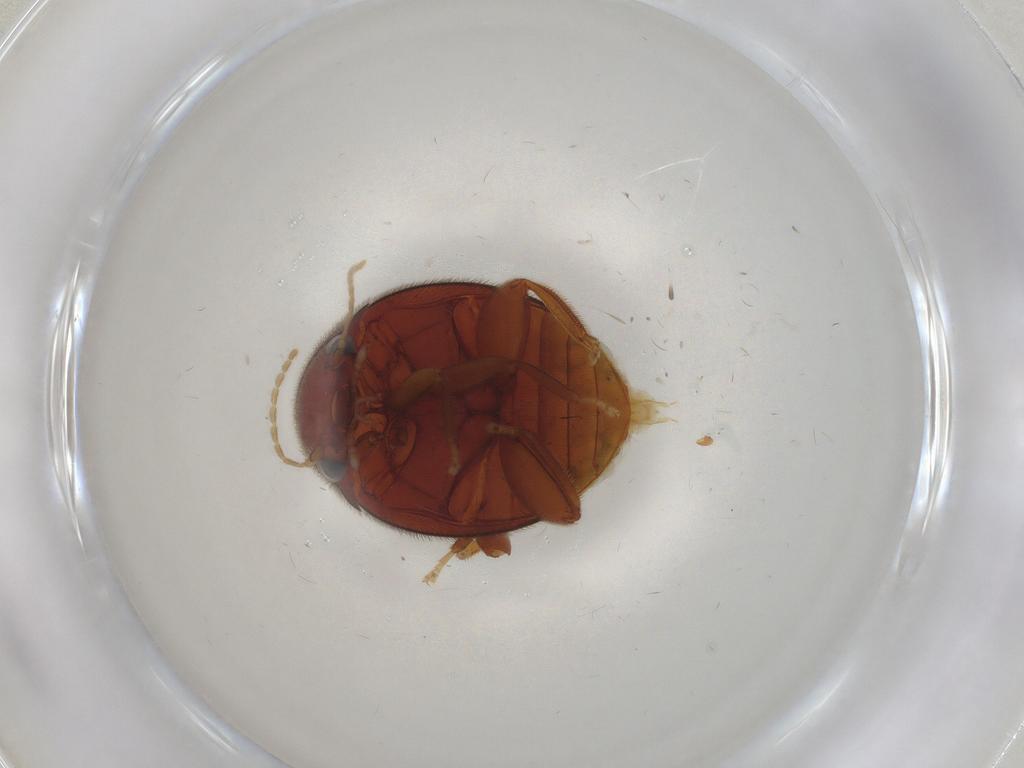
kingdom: Animalia
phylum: Arthropoda
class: Insecta
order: Coleoptera
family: Scirtidae
